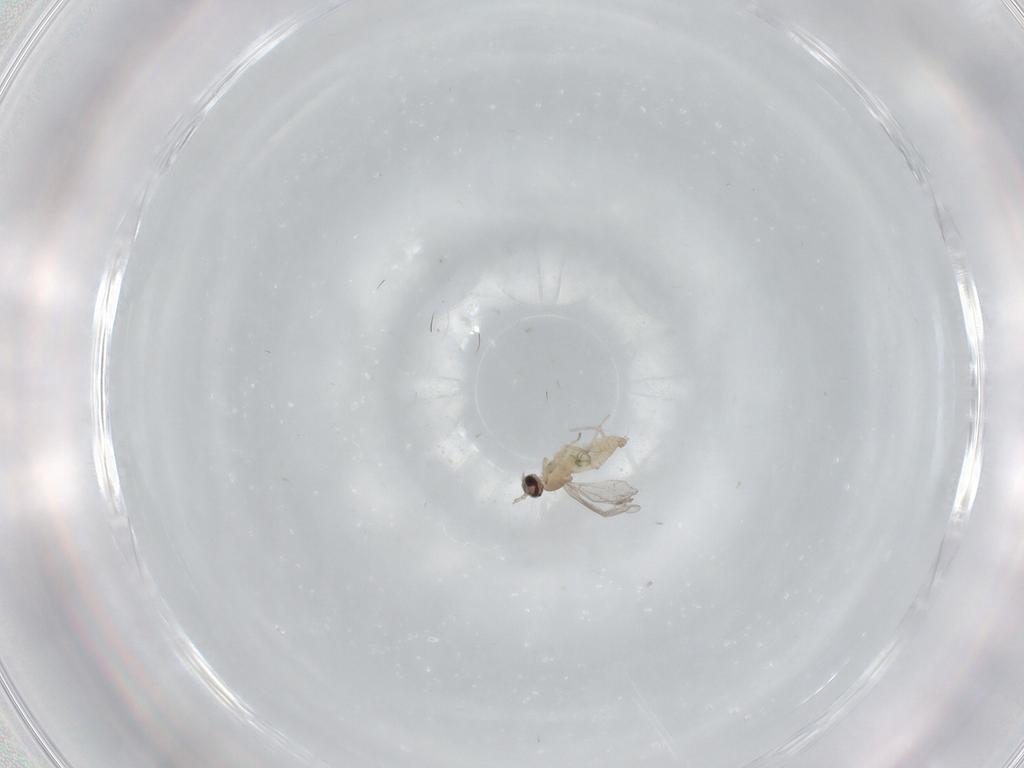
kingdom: Animalia
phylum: Arthropoda
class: Insecta
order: Diptera
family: Cecidomyiidae
